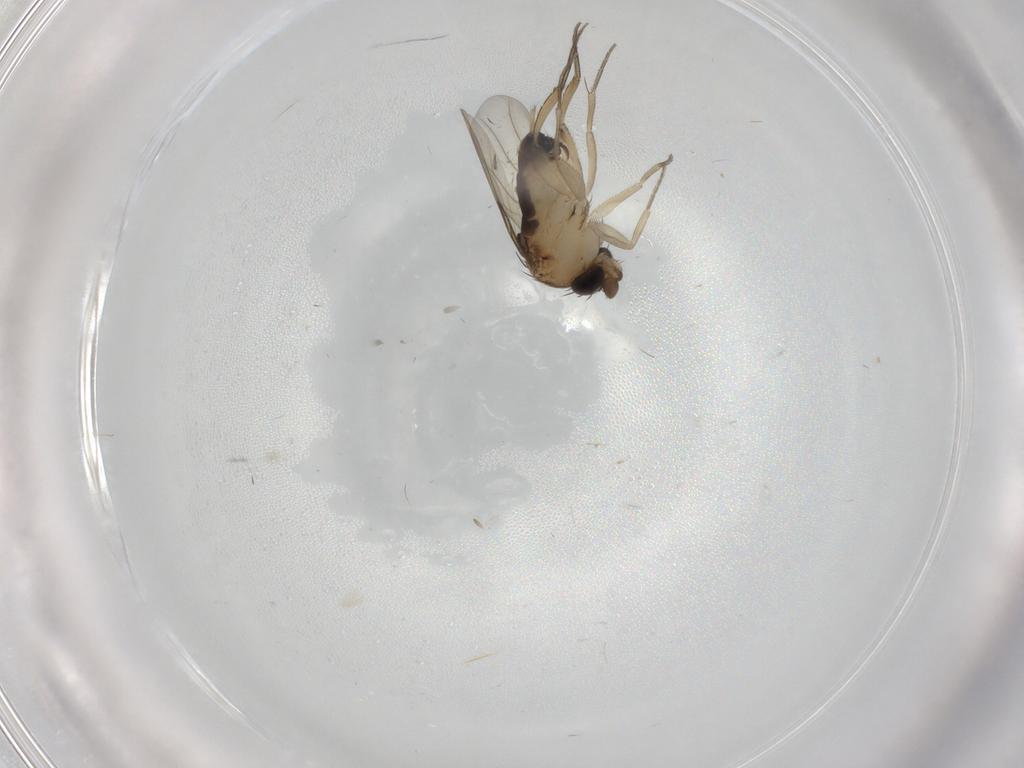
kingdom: Animalia
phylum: Arthropoda
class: Insecta
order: Diptera
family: Phoridae
